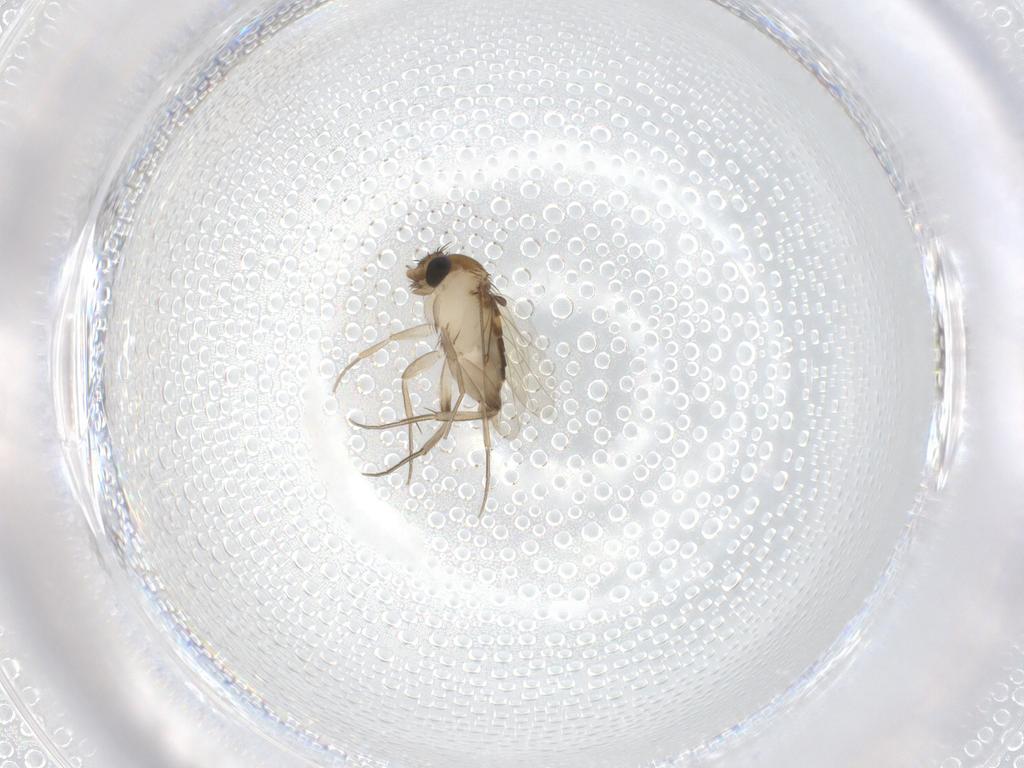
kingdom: Animalia
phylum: Arthropoda
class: Insecta
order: Diptera
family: Phoridae
